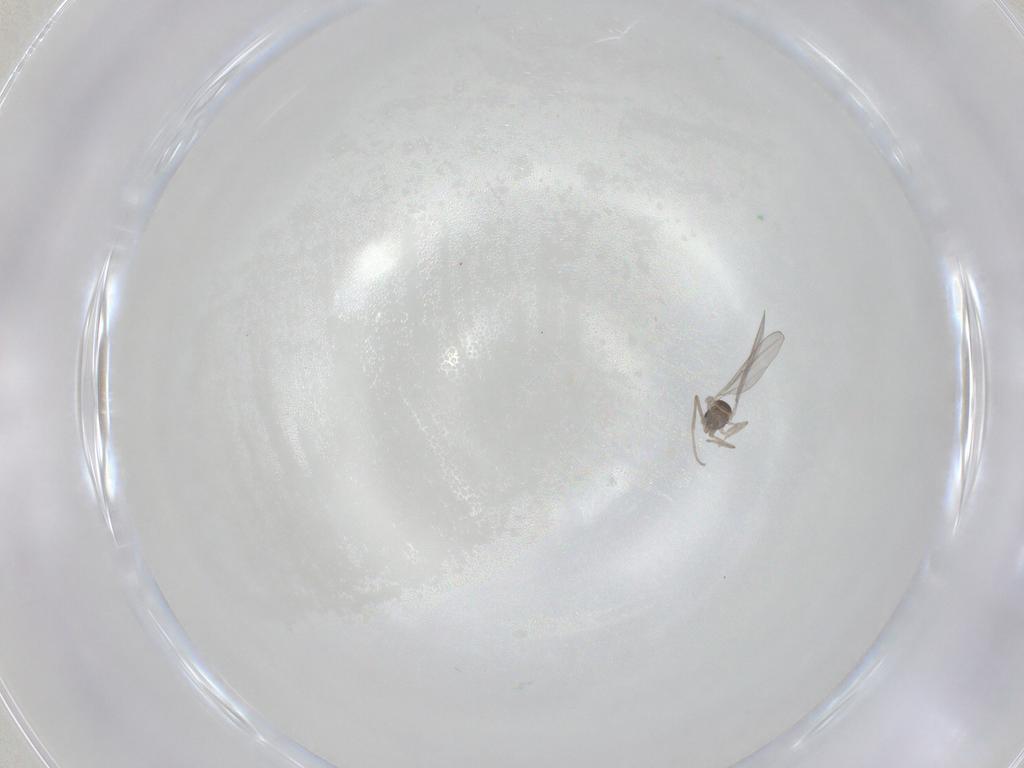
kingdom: Animalia
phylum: Arthropoda
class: Insecta
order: Diptera
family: Cecidomyiidae
